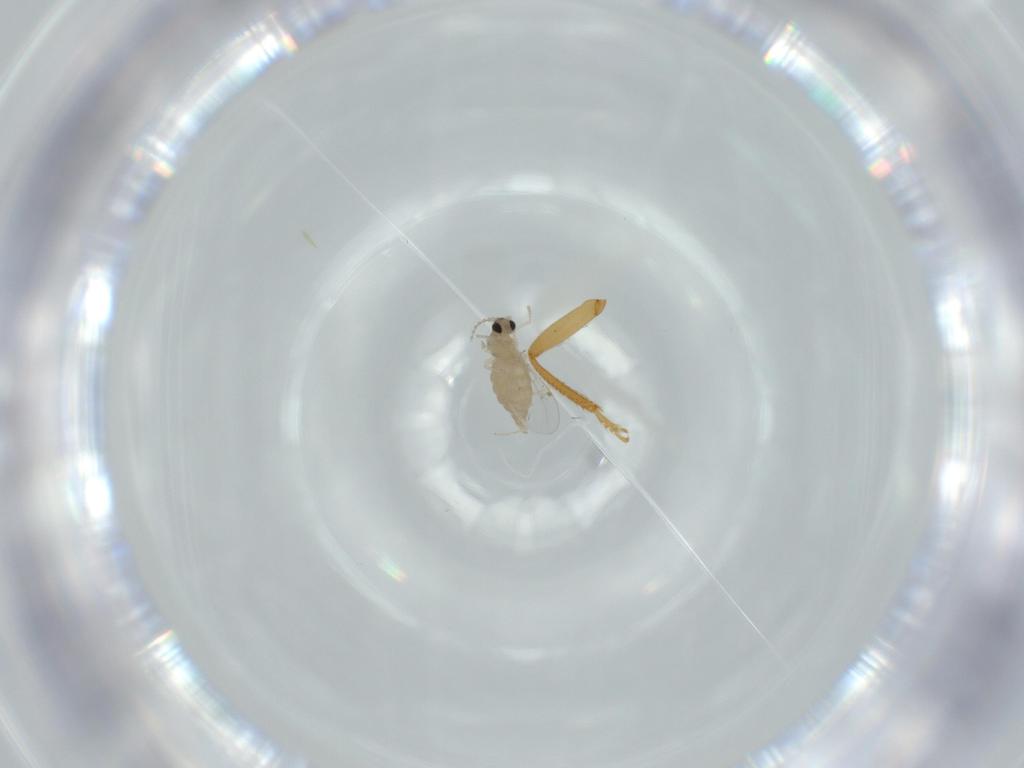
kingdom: Animalia
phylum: Arthropoda
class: Insecta
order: Diptera
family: Cecidomyiidae
